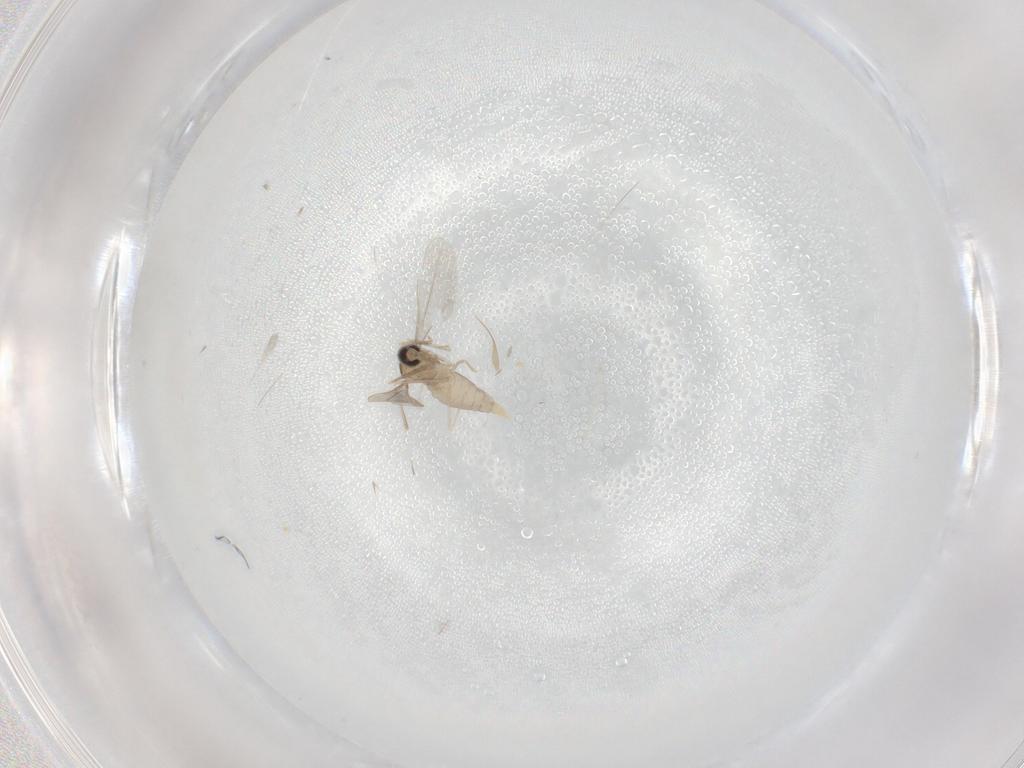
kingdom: Animalia
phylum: Arthropoda
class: Insecta
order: Diptera
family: Cecidomyiidae
